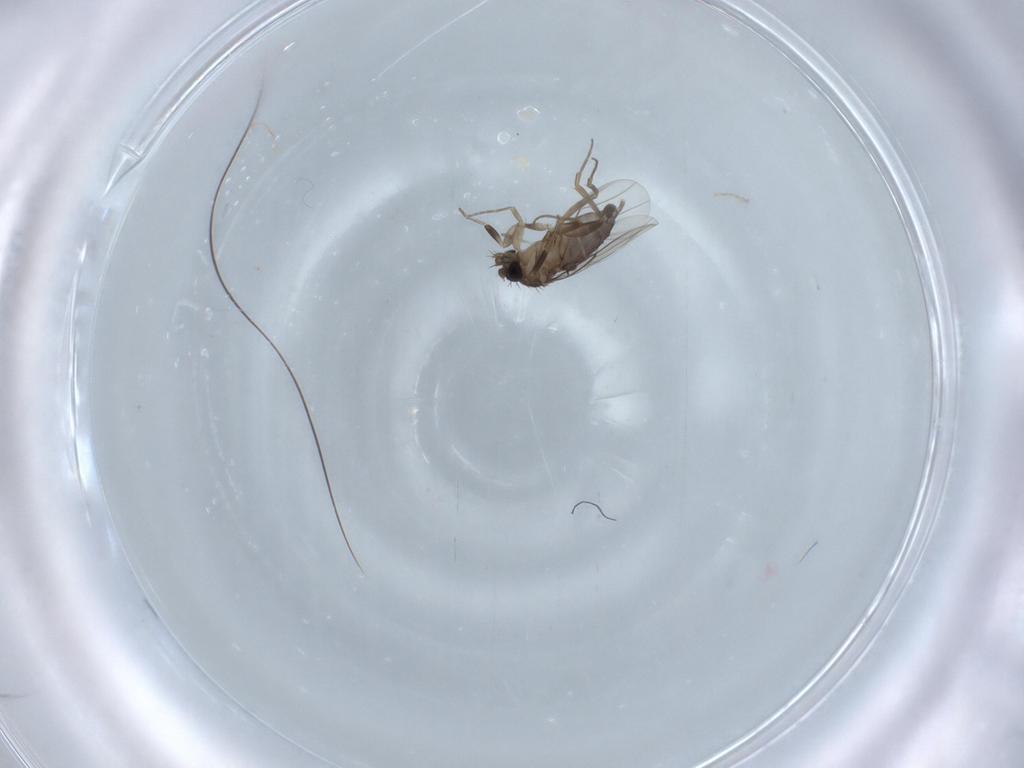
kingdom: Animalia
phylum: Arthropoda
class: Insecta
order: Diptera
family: Phoridae
